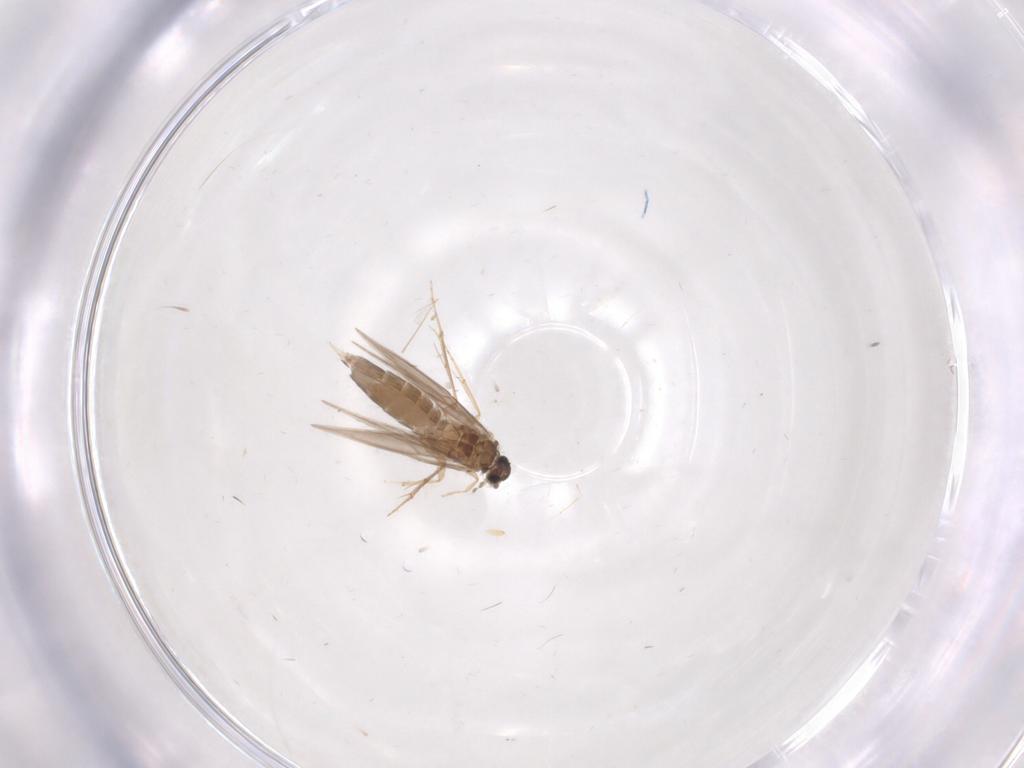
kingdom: Animalia
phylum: Arthropoda
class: Insecta
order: Trichoptera
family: Hydroptilidae
